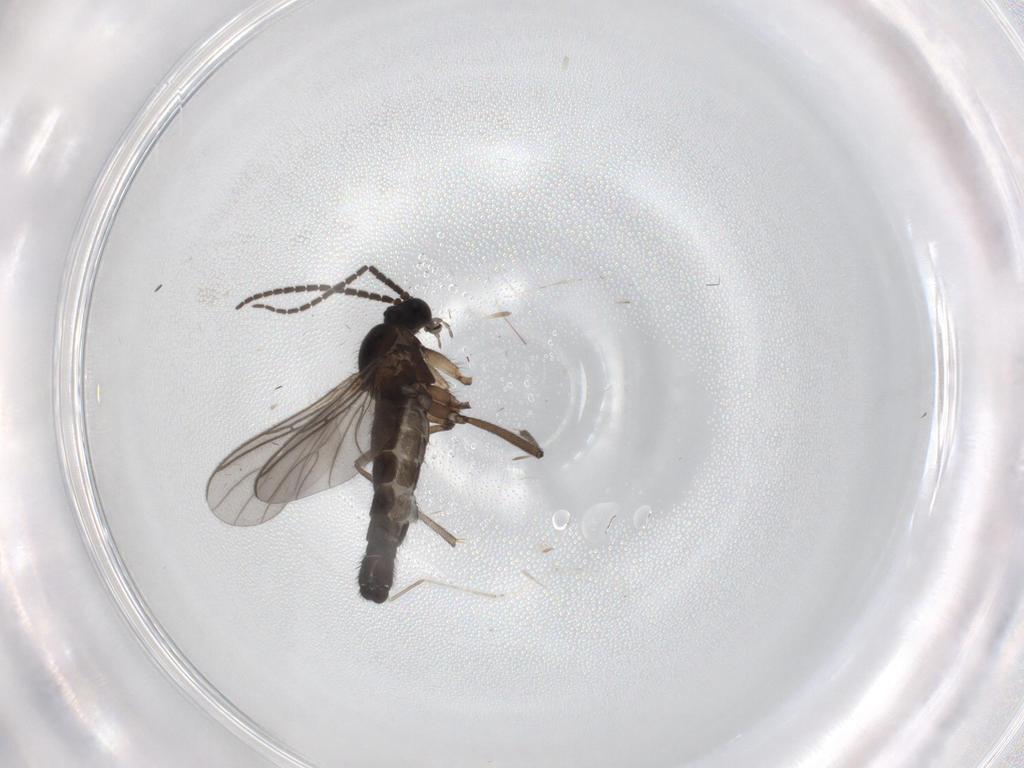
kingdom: Animalia
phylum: Arthropoda
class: Insecta
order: Diptera
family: Cecidomyiidae
